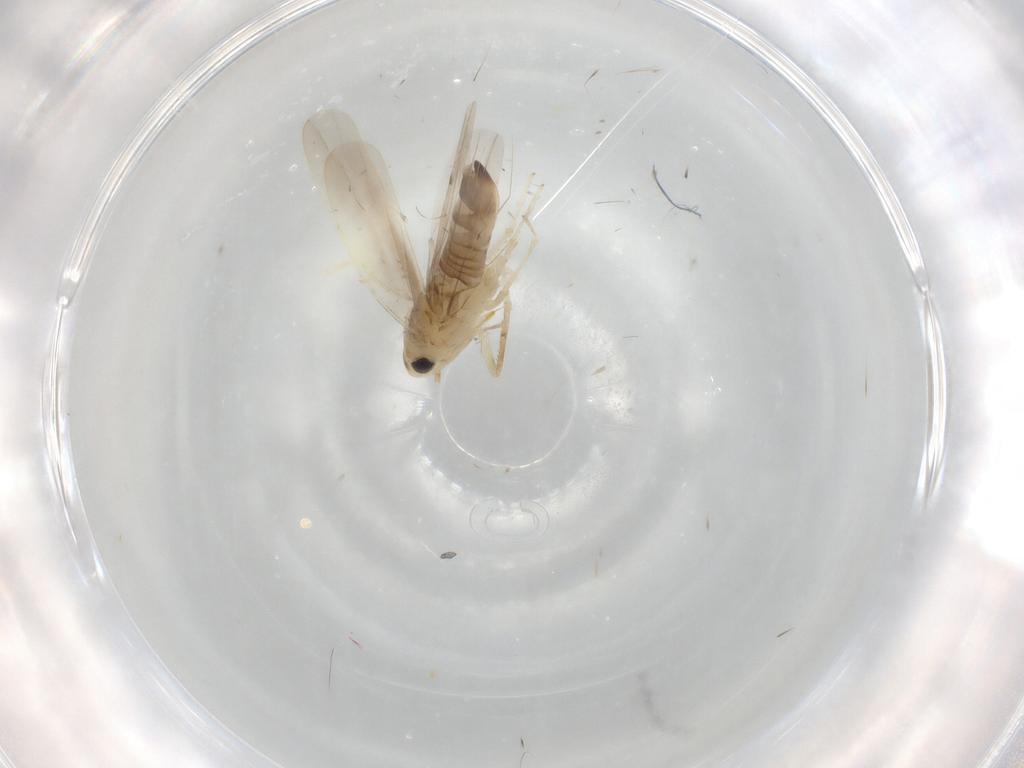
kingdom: Animalia
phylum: Arthropoda
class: Insecta
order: Hemiptera
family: Cicadellidae
